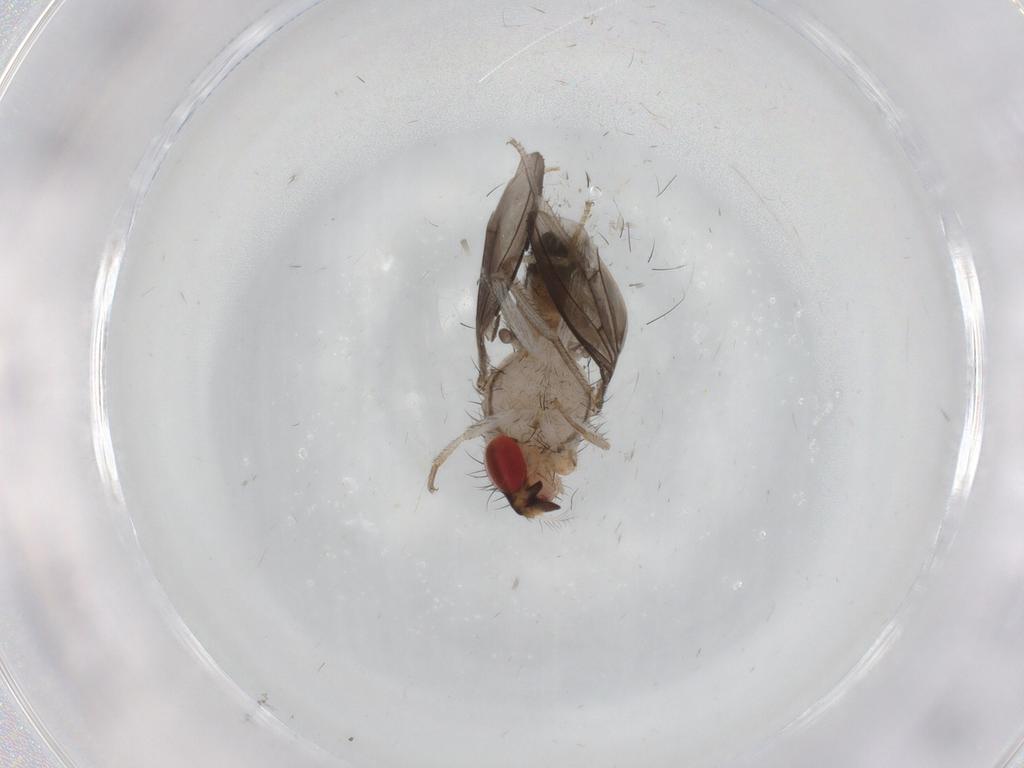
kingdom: Animalia
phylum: Arthropoda
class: Insecta
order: Diptera
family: Drosophilidae
